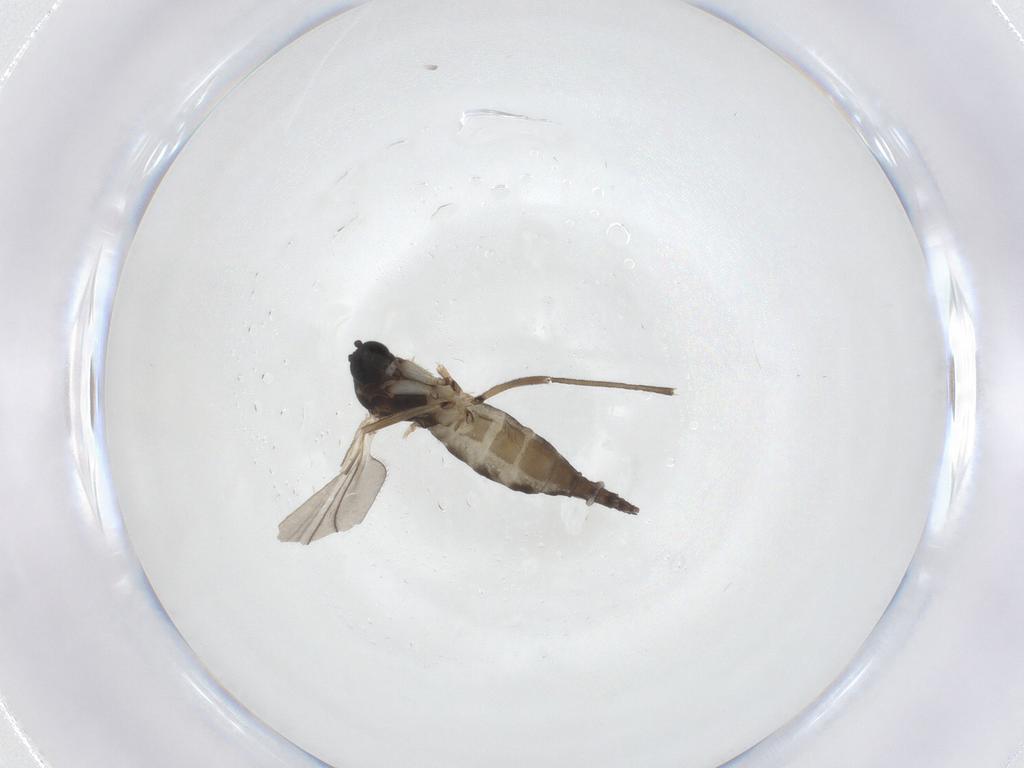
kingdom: Animalia
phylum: Arthropoda
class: Insecta
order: Diptera
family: Sciaridae
